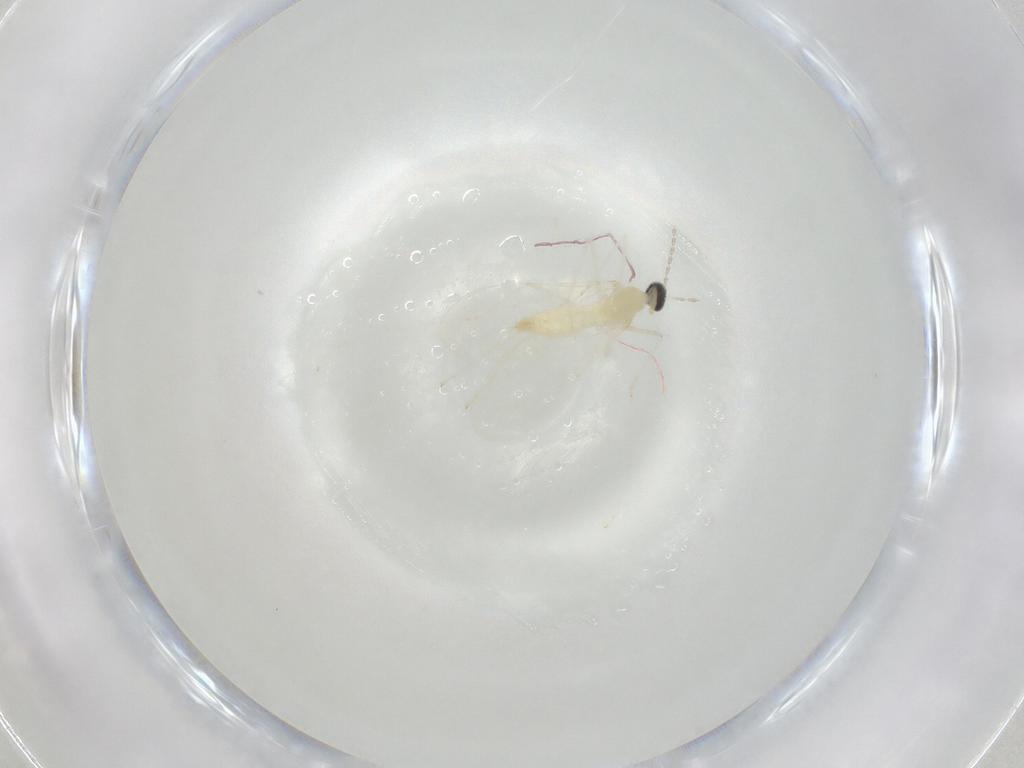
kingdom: Animalia
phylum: Arthropoda
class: Insecta
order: Diptera
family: Cecidomyiidae
